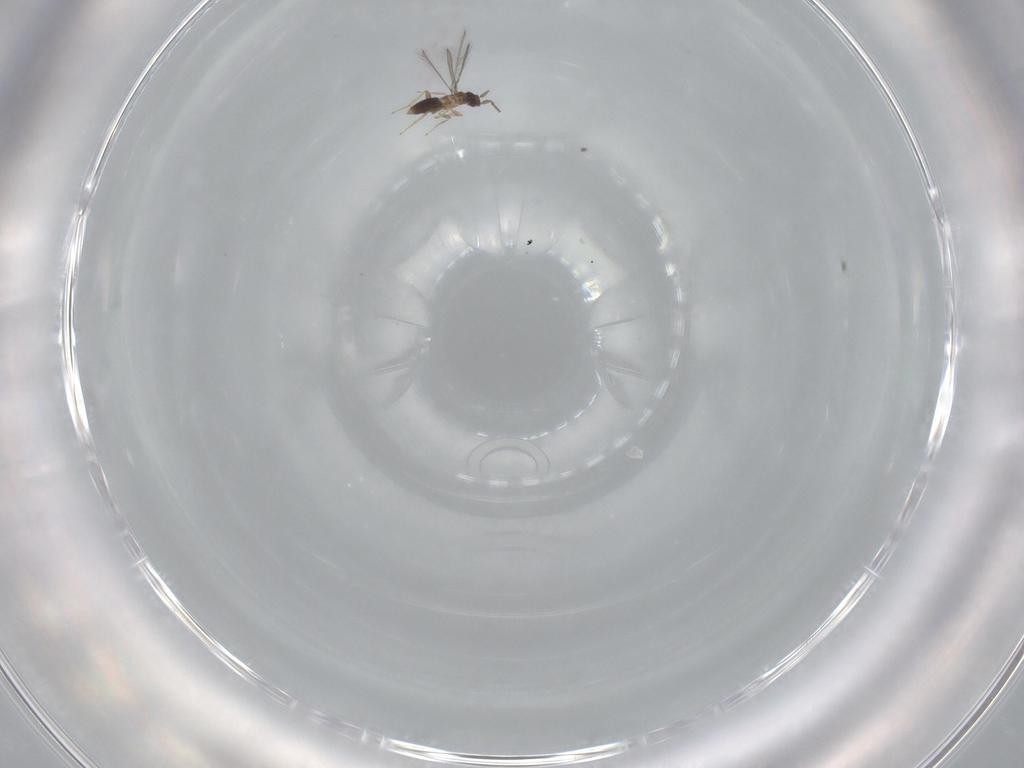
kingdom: Animalia
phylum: Arthropoda
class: Insecta
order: Hymenoptera
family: Mymaridae
